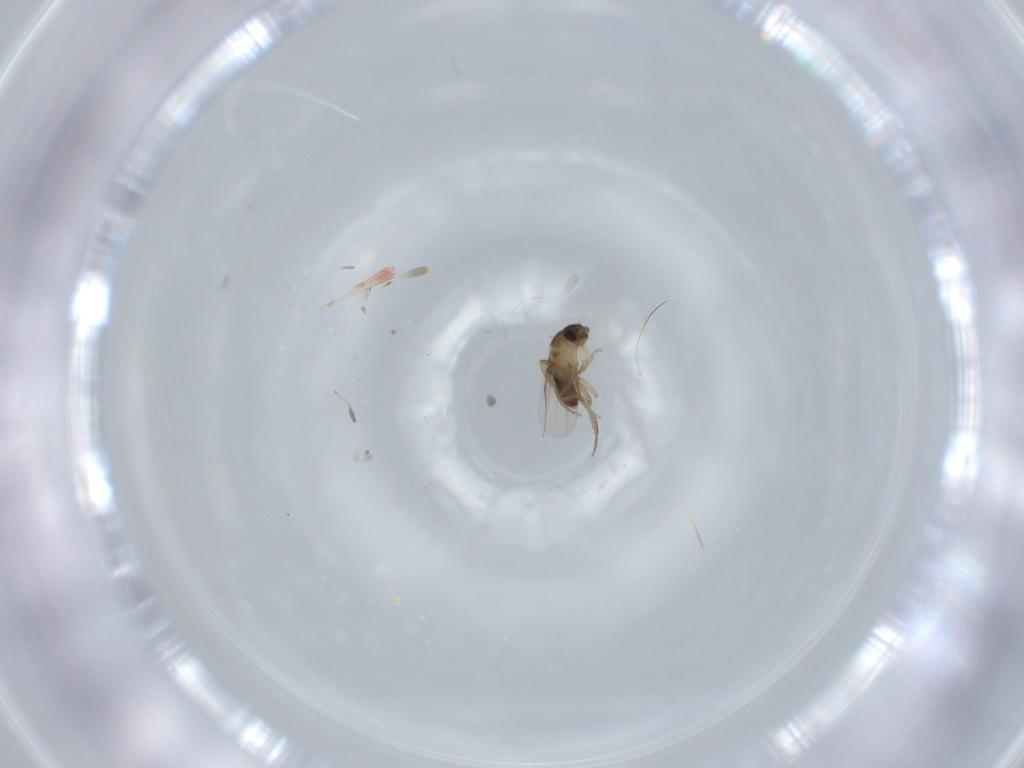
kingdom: Animalia
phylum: Arthropoda
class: Insecta
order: Diptera
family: Phoridae
